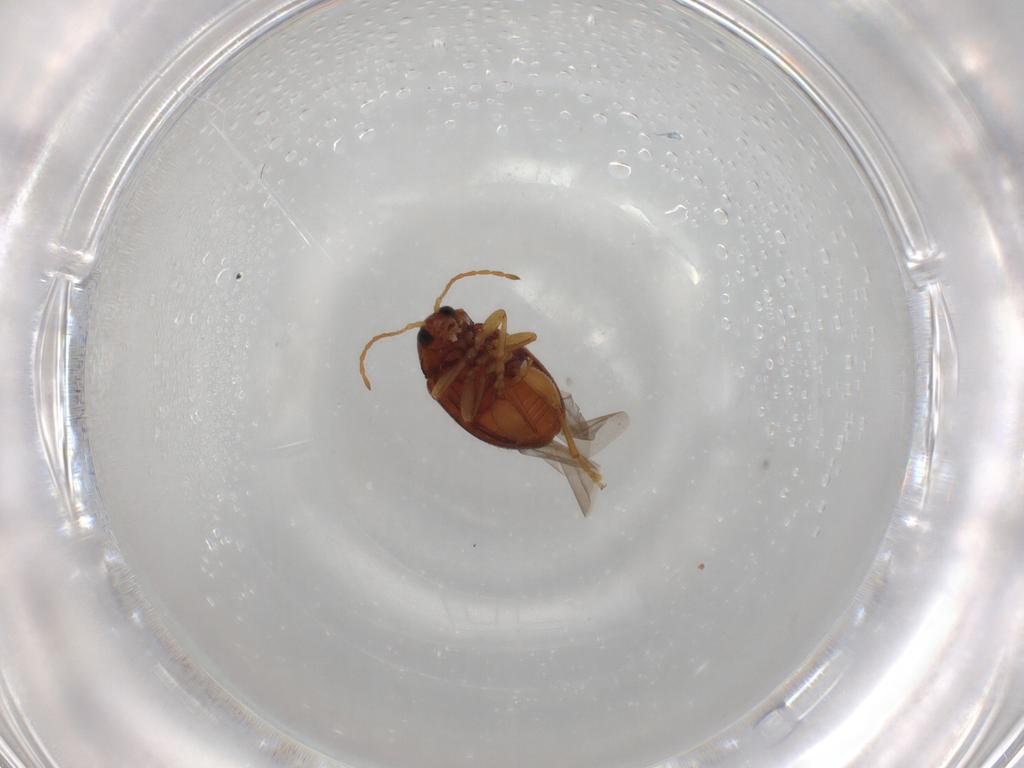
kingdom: Animalia
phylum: Arthropoda
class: Insecta
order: Coleoptera
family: Chrysomelidae
